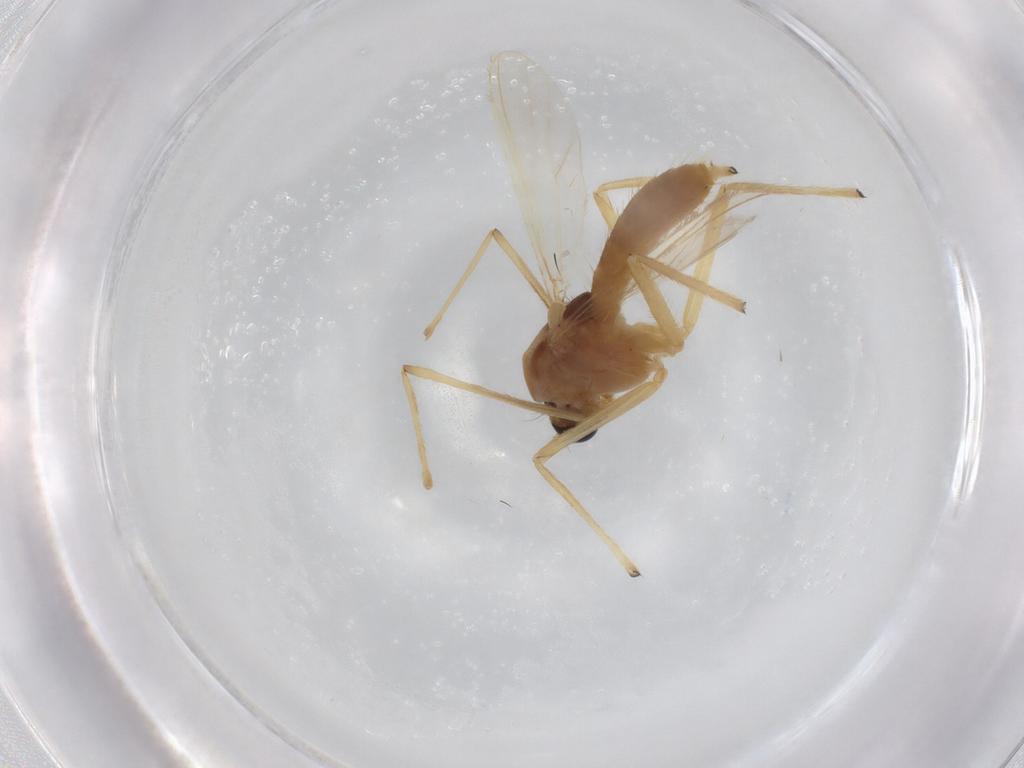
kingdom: Animalia
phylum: Arthropoda
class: Insecta
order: Diptera
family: Chironomidae
